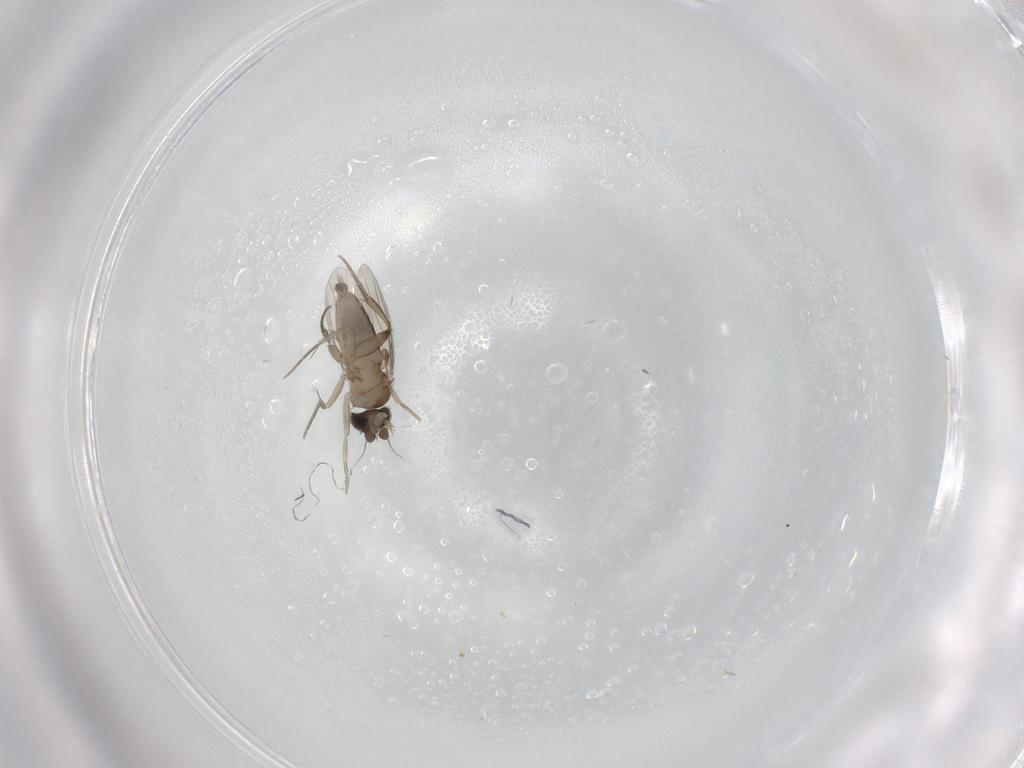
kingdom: Animalia
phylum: Arthropoda
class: Insecta
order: Diptera
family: Phoridae
